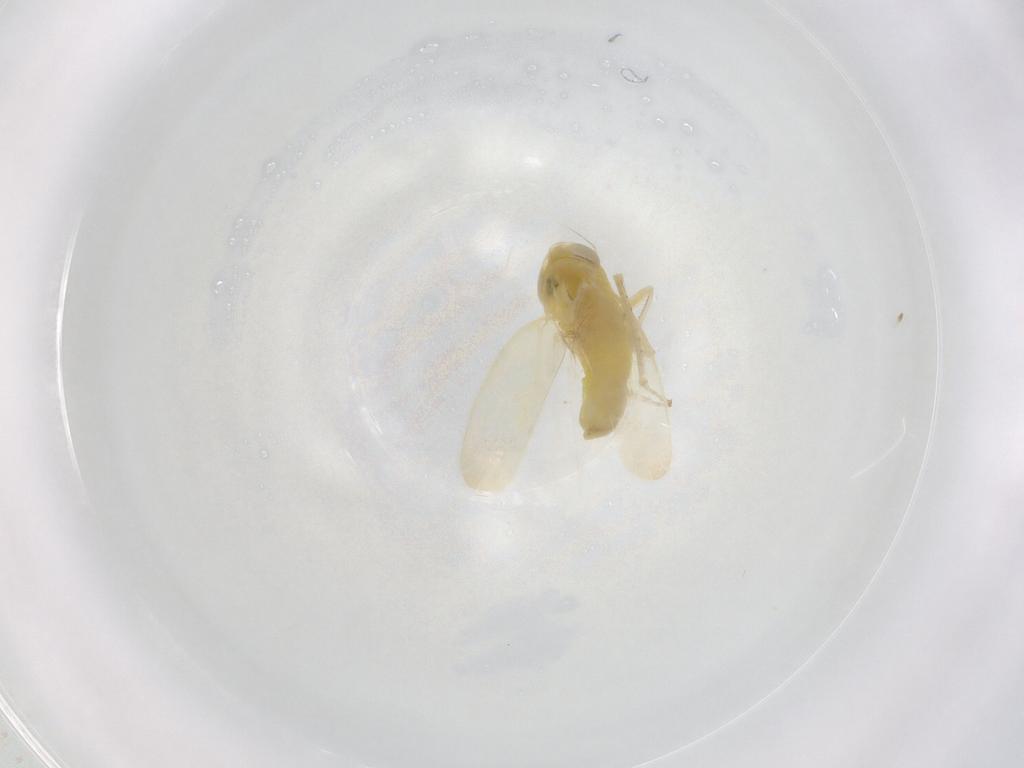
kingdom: Animalia
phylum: Arthropoda
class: Insecta
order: Hemiptera
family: Cicadellidae
